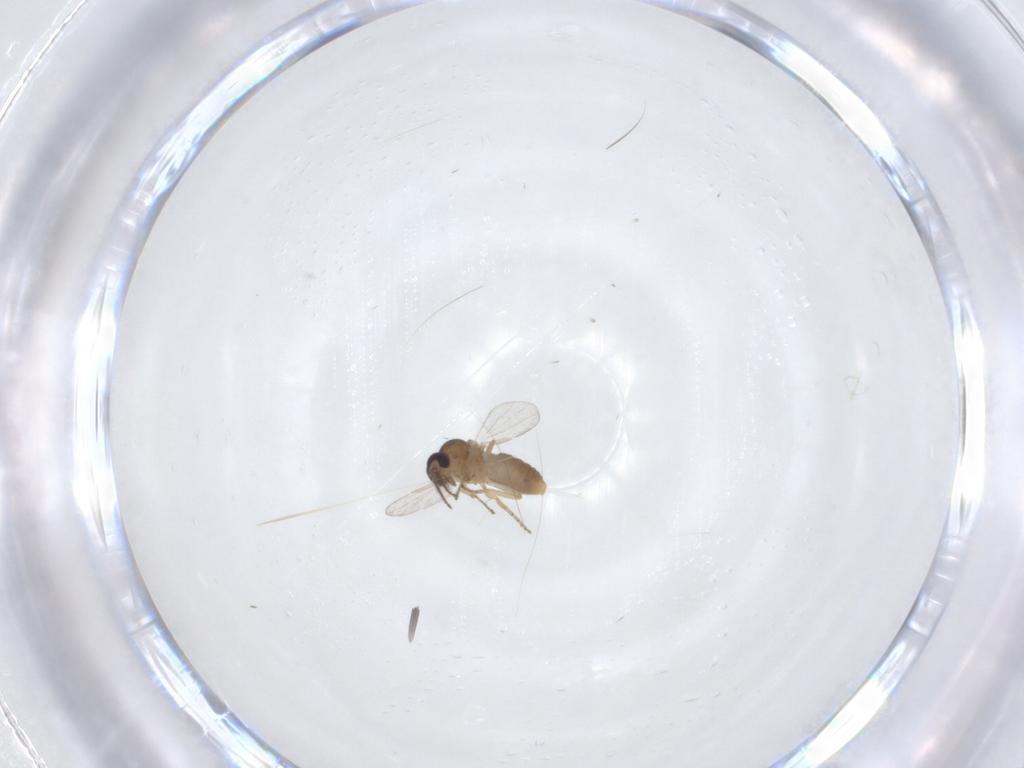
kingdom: Animalia
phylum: Arthropoda
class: Insecta
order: Diptera
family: Ceratopogonidae
